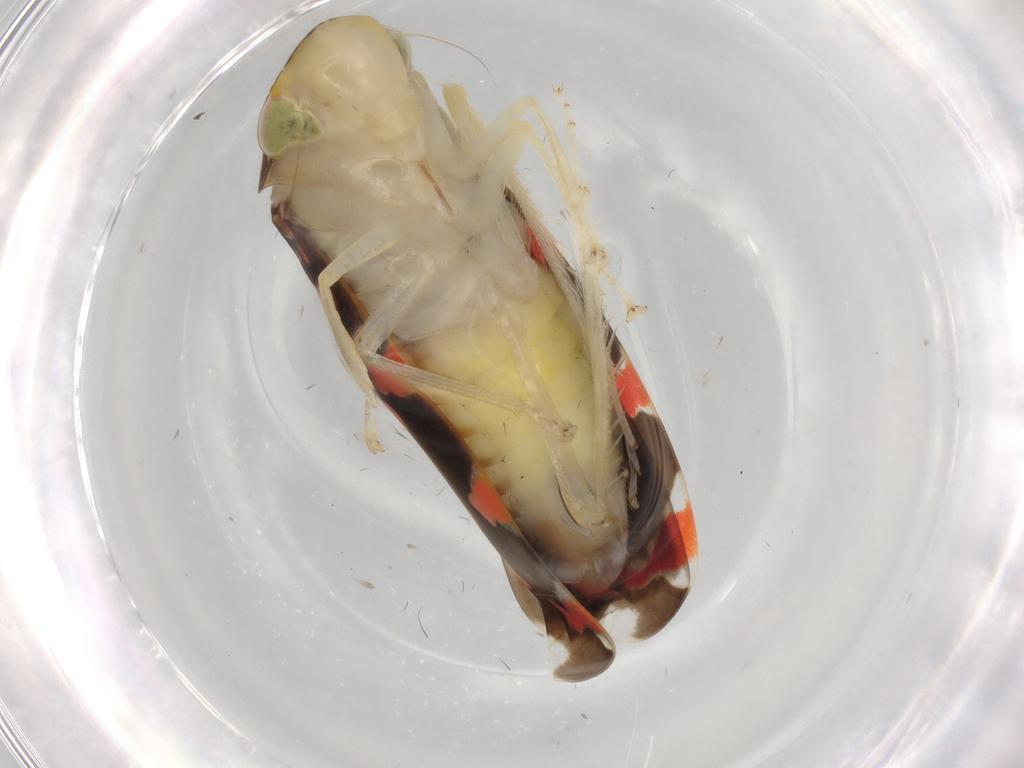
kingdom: Animalia
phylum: Arthropoda
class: Insecta
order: Hemiptera
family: Cicadellidae
